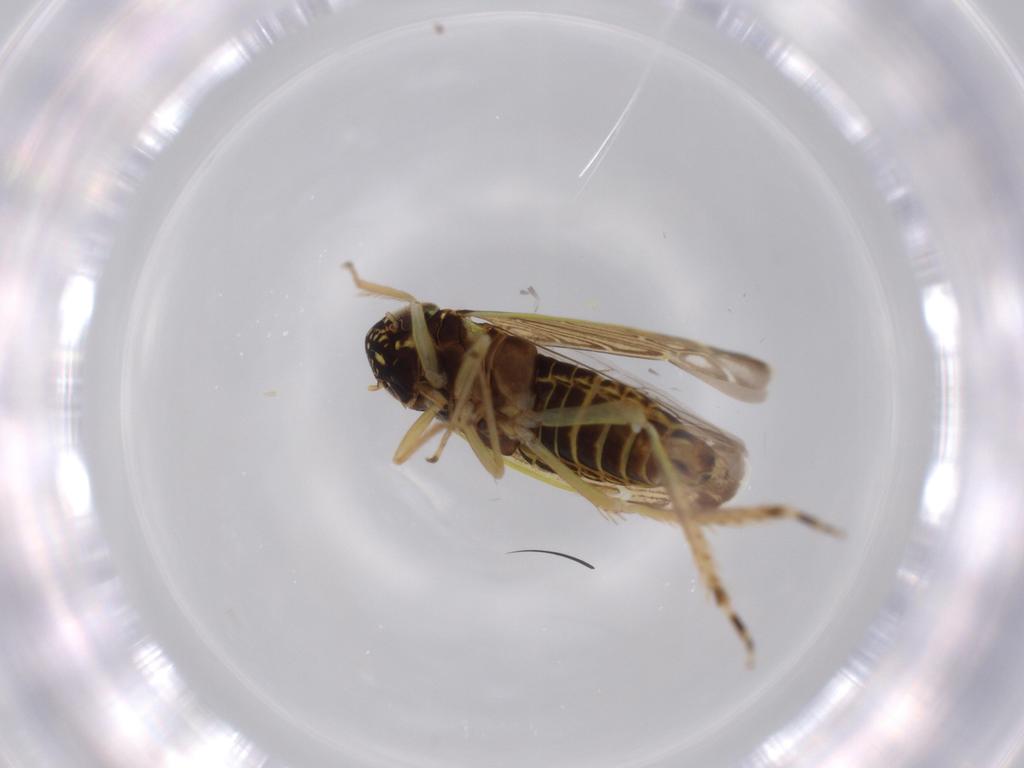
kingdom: Animalia
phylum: Arthropoda
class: Insecta
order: Hemiptera
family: Cicadellidae
